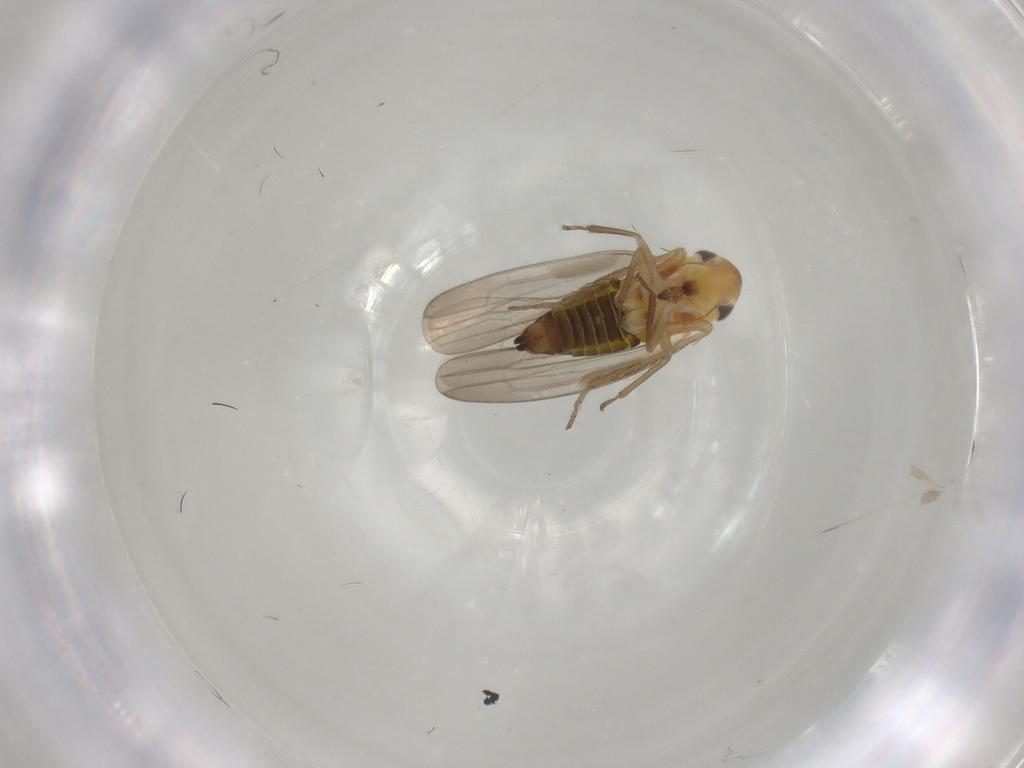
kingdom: Animalia
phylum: Arthropoda
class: Insecta
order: Hemiptera
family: Cicadellidae
